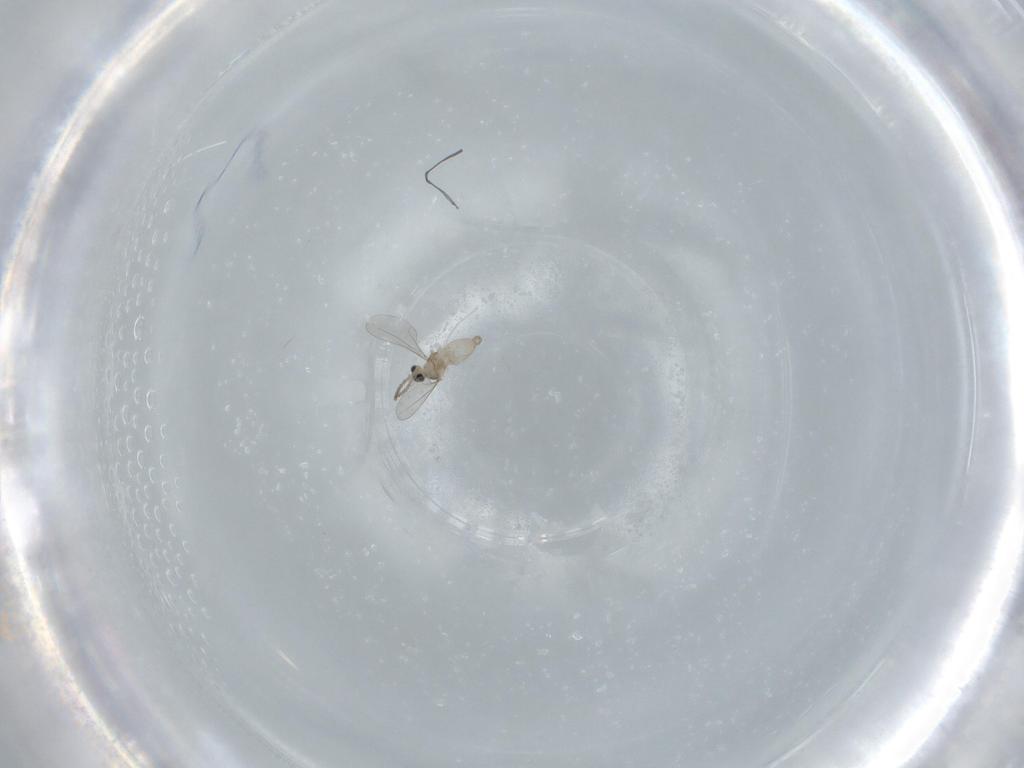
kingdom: Animalia
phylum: Arthropoda
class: Insecta
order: Diptera
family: Cecidomyiidae
